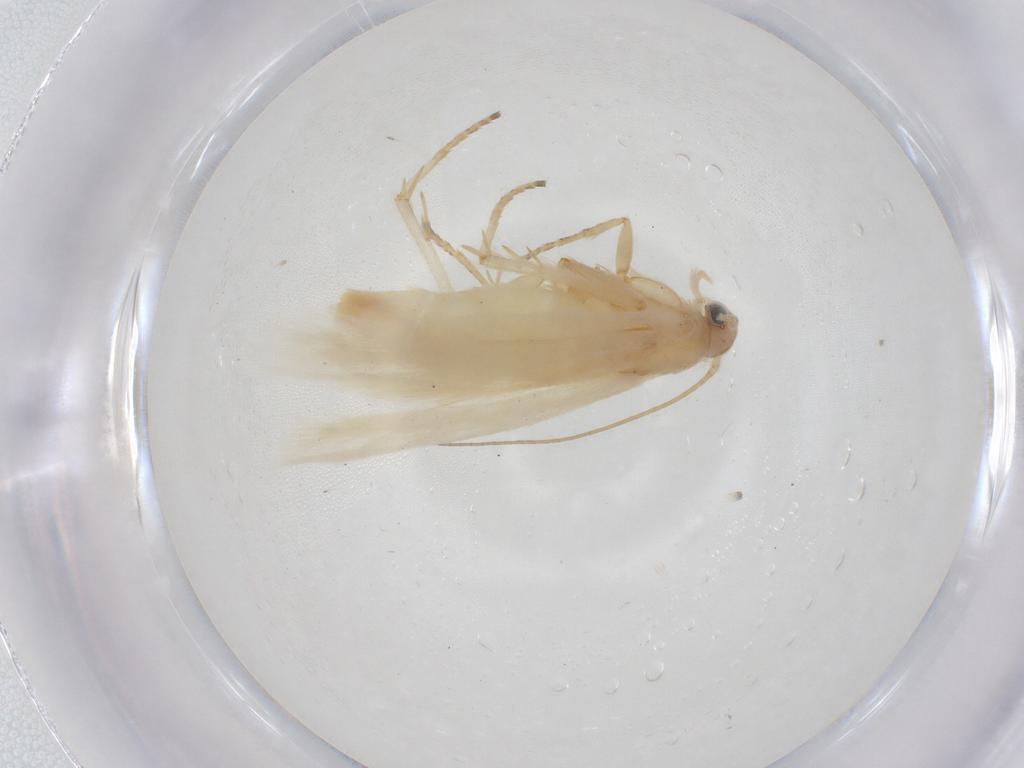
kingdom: Animalia
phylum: Arthropoda
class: Insecta
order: Lepidoptera
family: Gelechiidae
